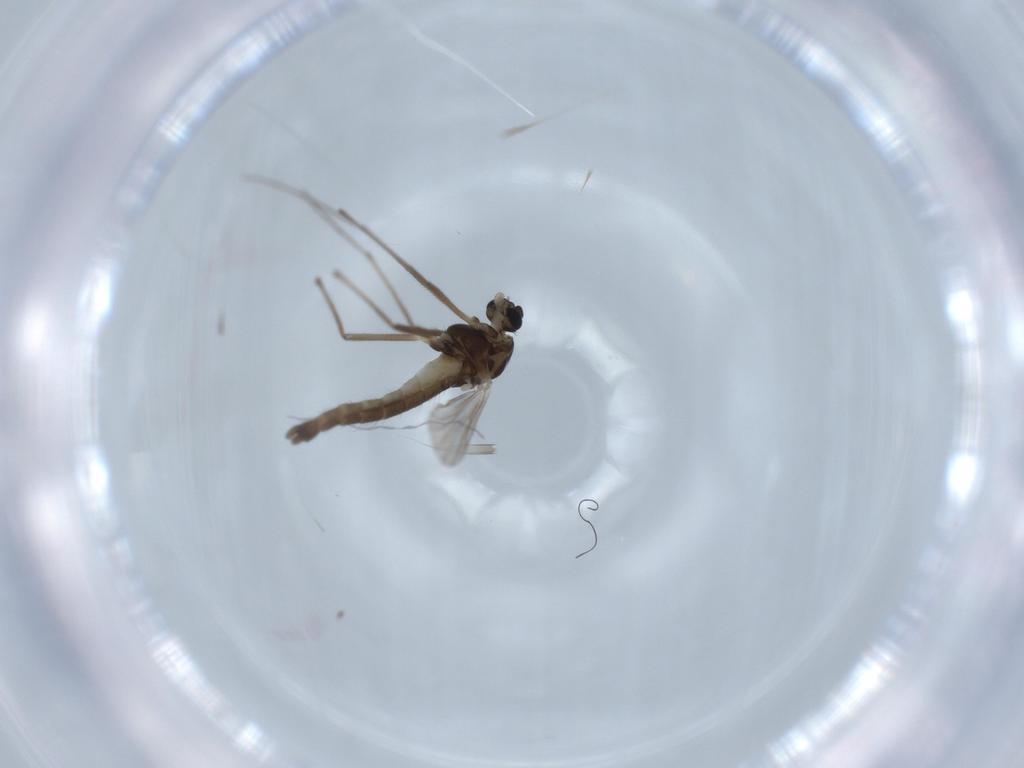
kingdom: Animalia
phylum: Arthropoda
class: Insecta
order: Diptera
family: Chironomidae
